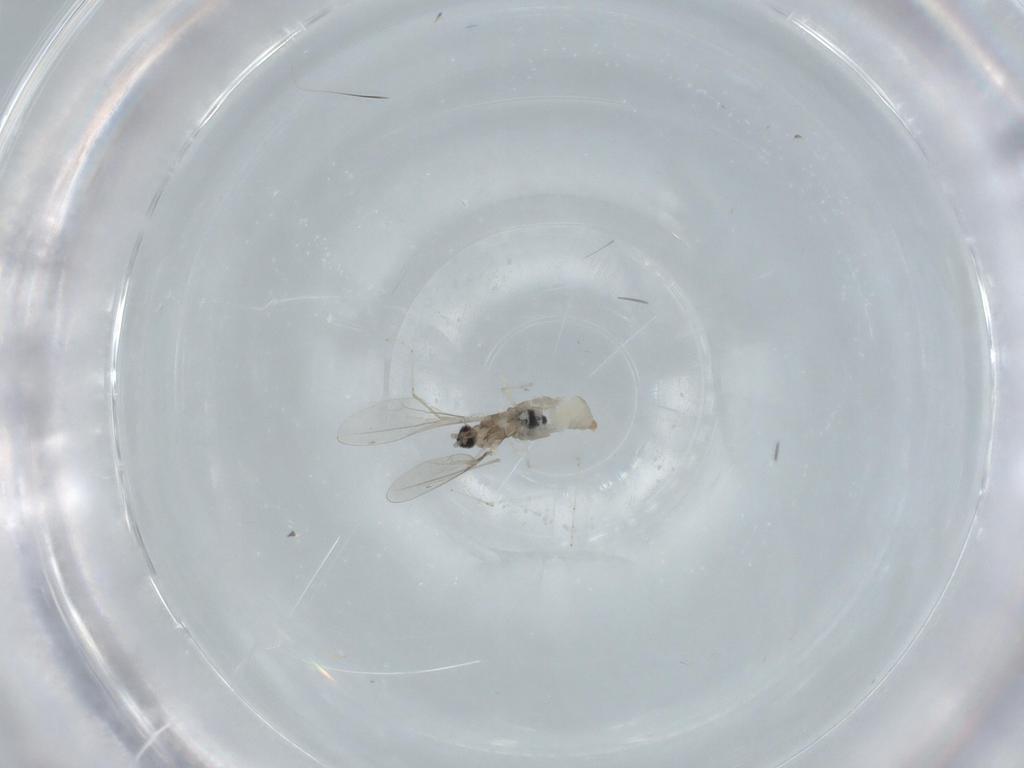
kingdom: Animalia
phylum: Arthropoda
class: Insecta
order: Diptera
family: Cecidomyiidae
